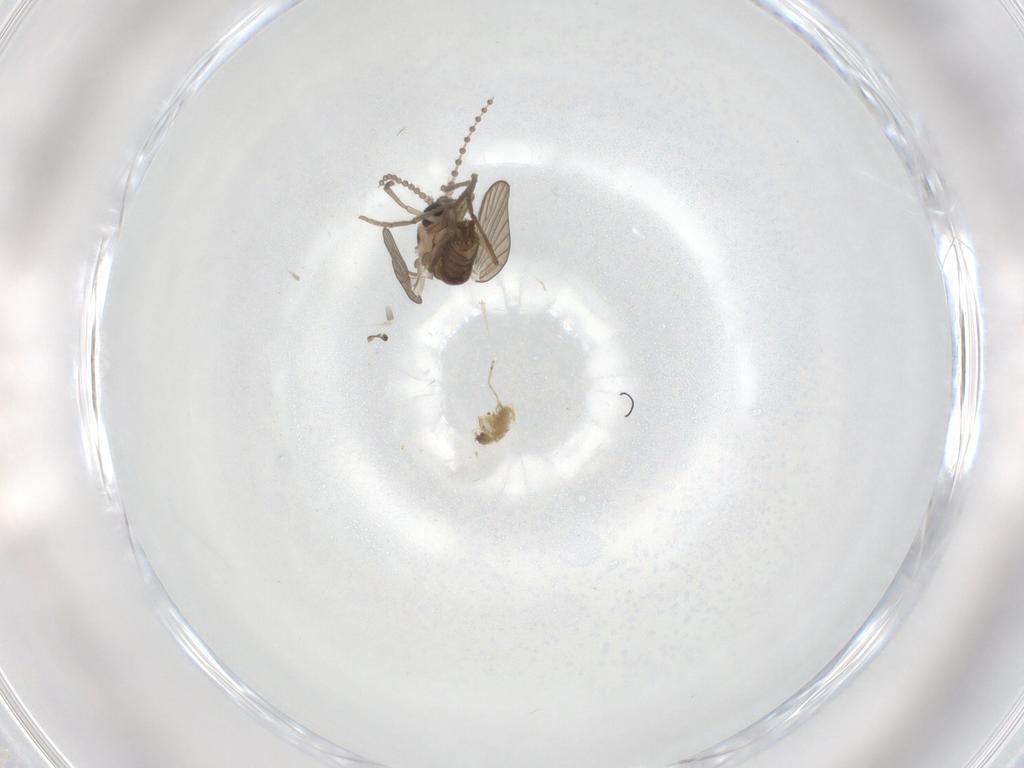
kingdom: Animalia
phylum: Arthropoda
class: Insecta
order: Diptera
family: Psychodidae
